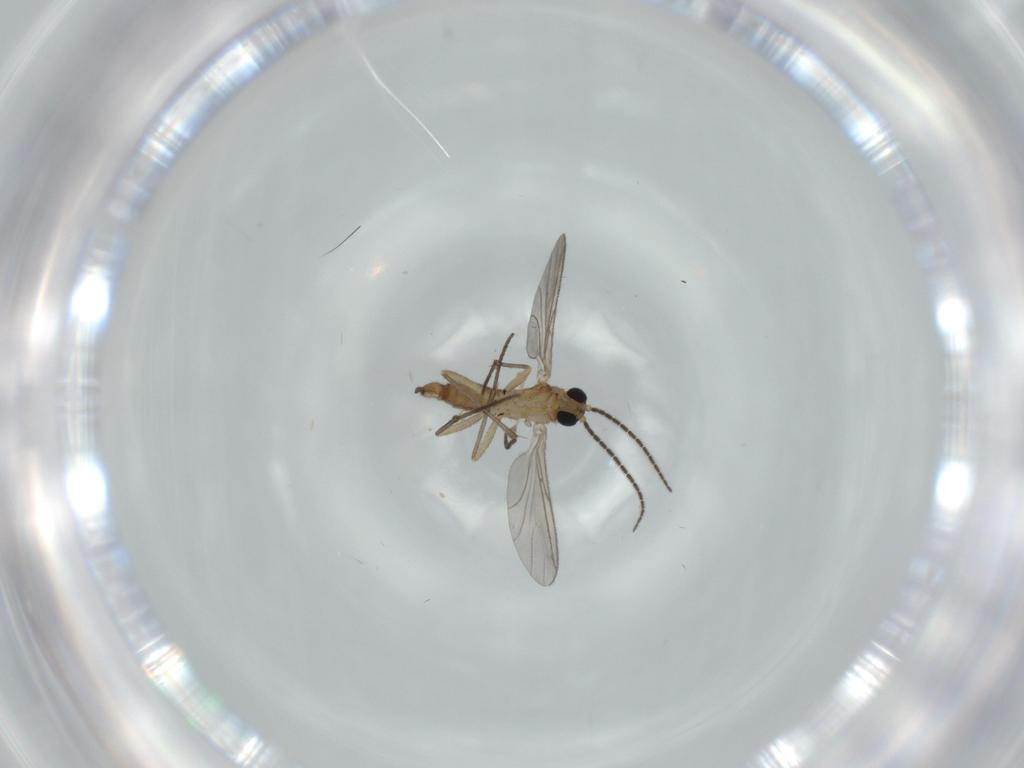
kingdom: Animalia
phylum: Arthropoda
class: Insecta
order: Diptera
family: Sciaridae
